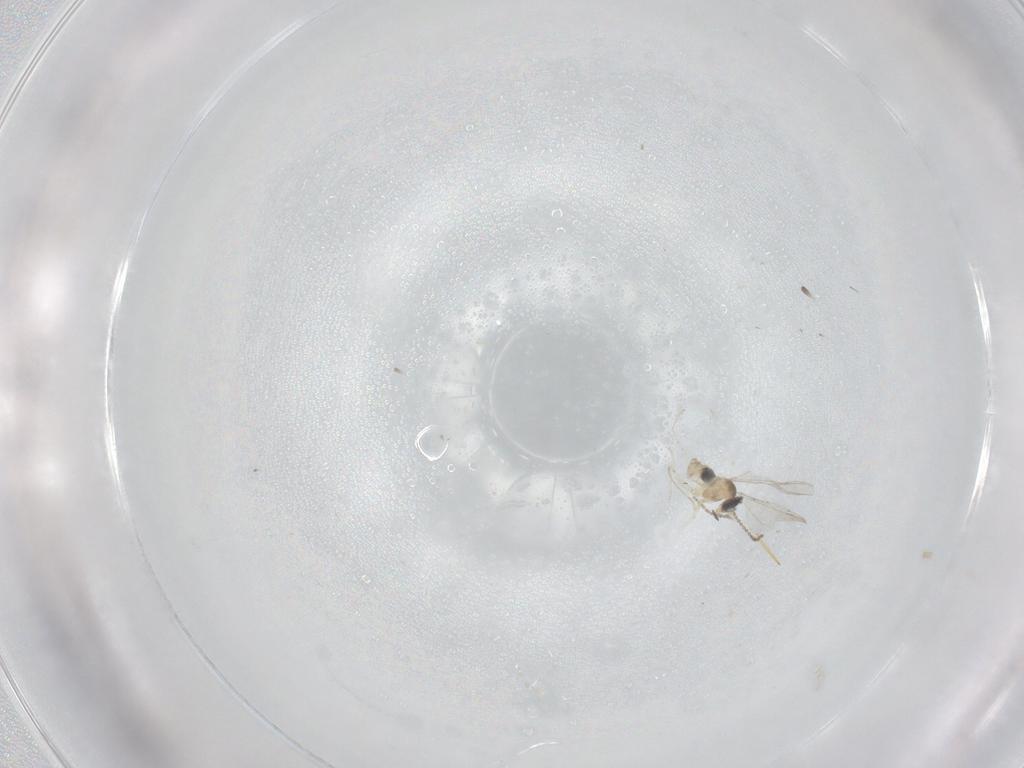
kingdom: Animalia
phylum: Arthropoda
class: Insecta
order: Diptera
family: Cecidomyiidae
